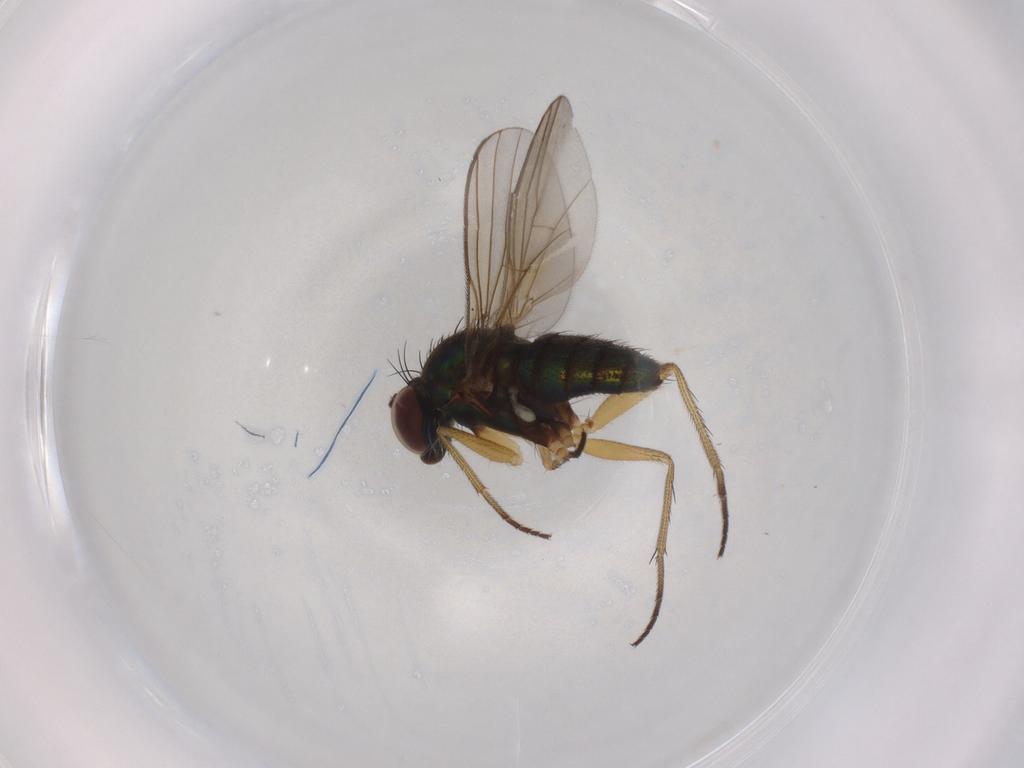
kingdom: Animalia
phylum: Arthropoda
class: Insecta
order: Diptera
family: Dolichopodidae
